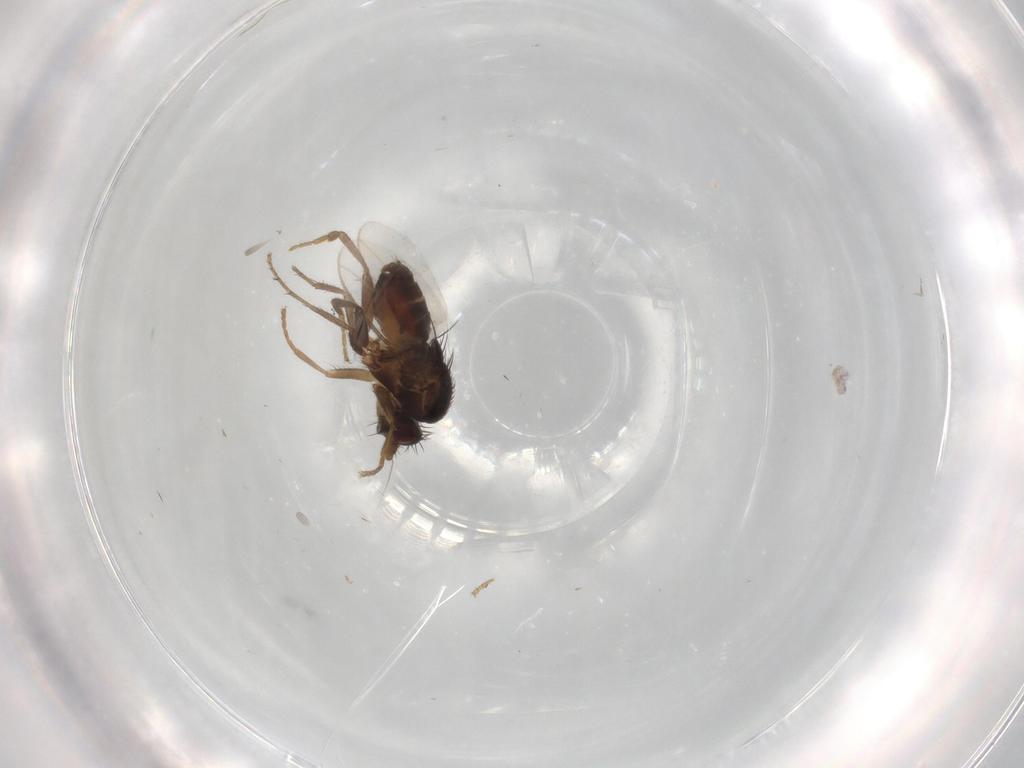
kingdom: Animalia
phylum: Arthropoda
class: Insecta
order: Diptera
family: Sphaeroceridae
